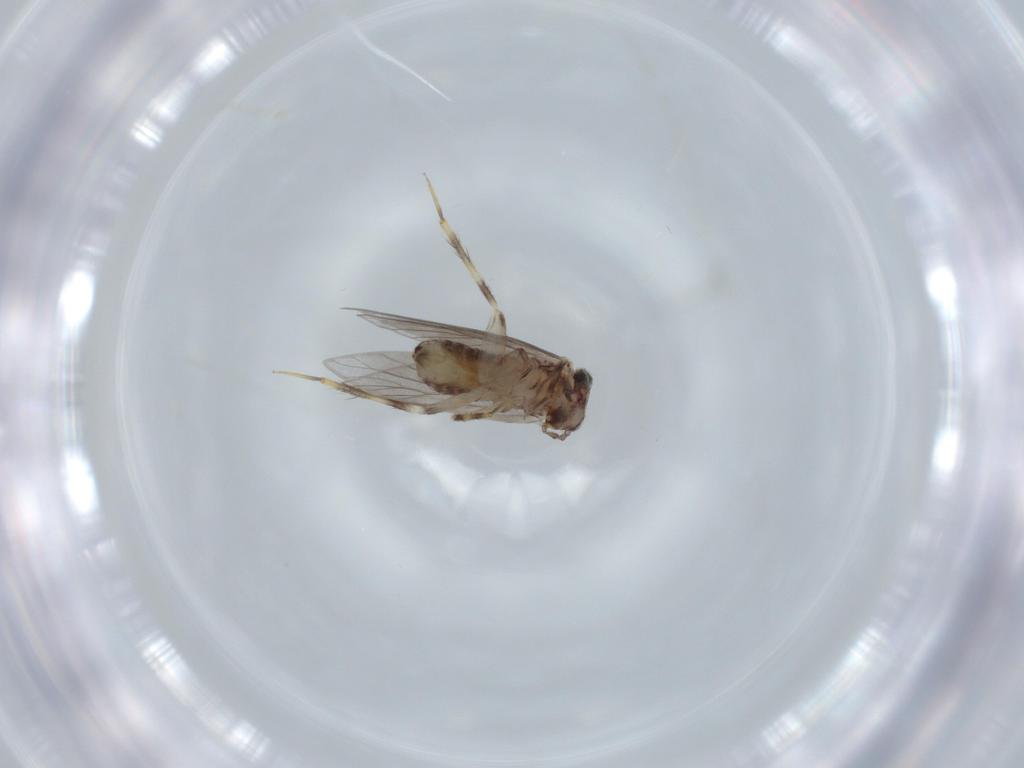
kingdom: Animalia
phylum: Arthropoda
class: Insecta
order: Psocodea
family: Lepidopsocidae
